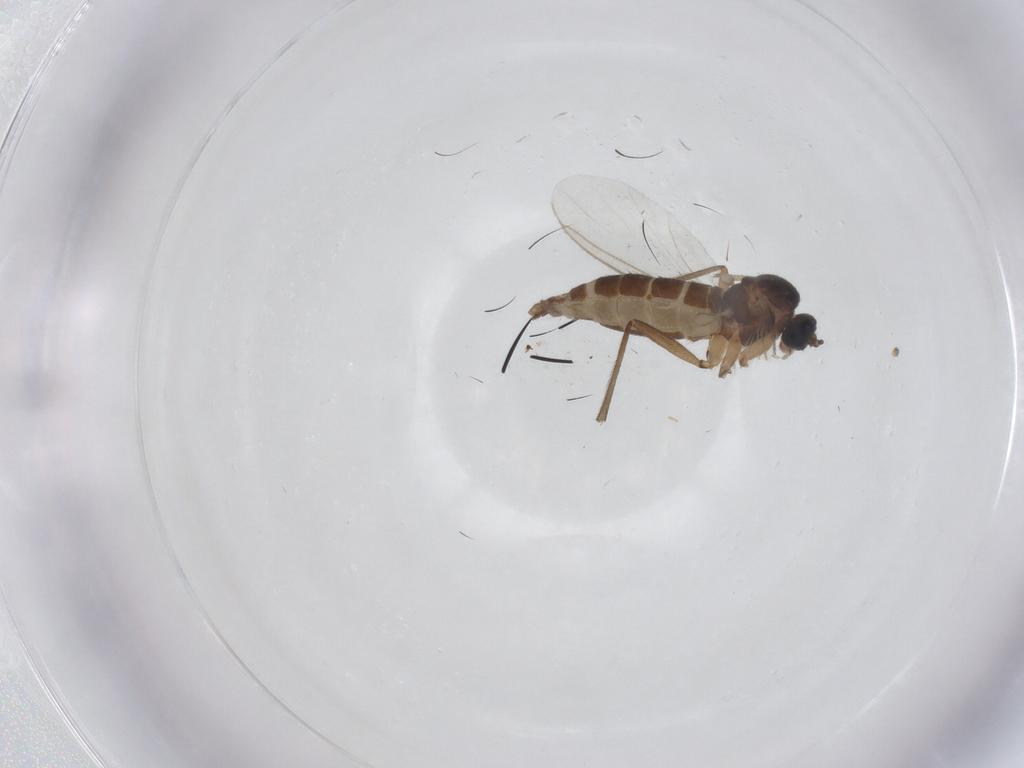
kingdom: Animalia
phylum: Arthropoda
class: Insecta
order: Diptera
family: Sciaridae
